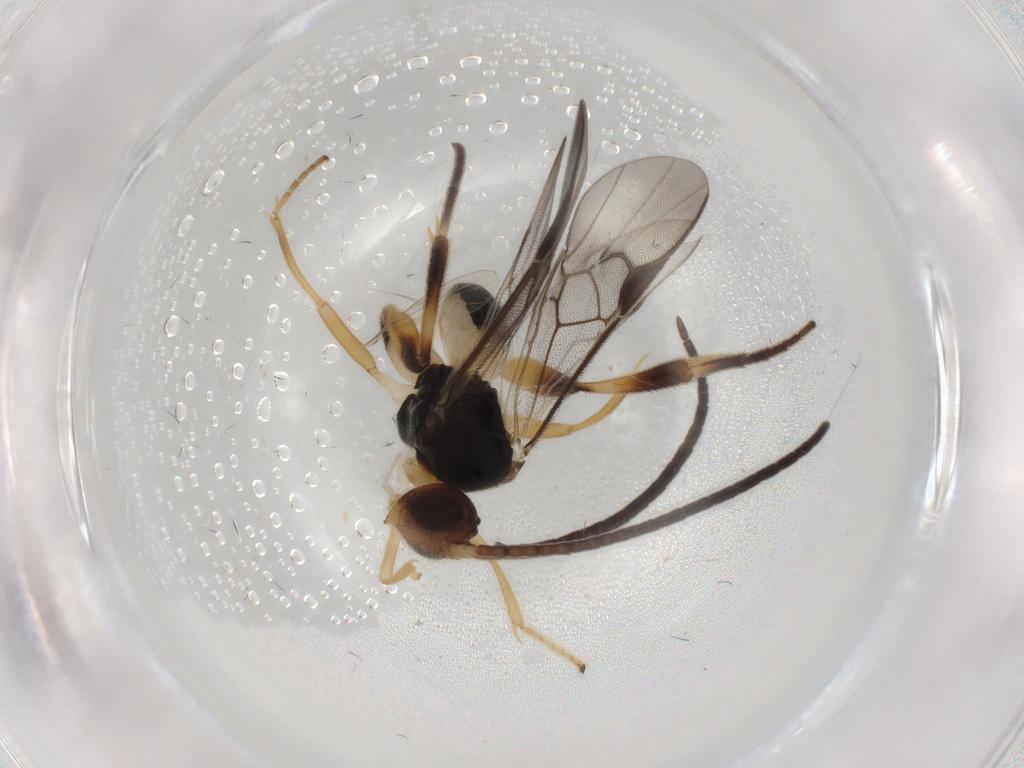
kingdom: Animalia
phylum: Arthropoda
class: Insecta
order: Hymenoptera
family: Braconidae
